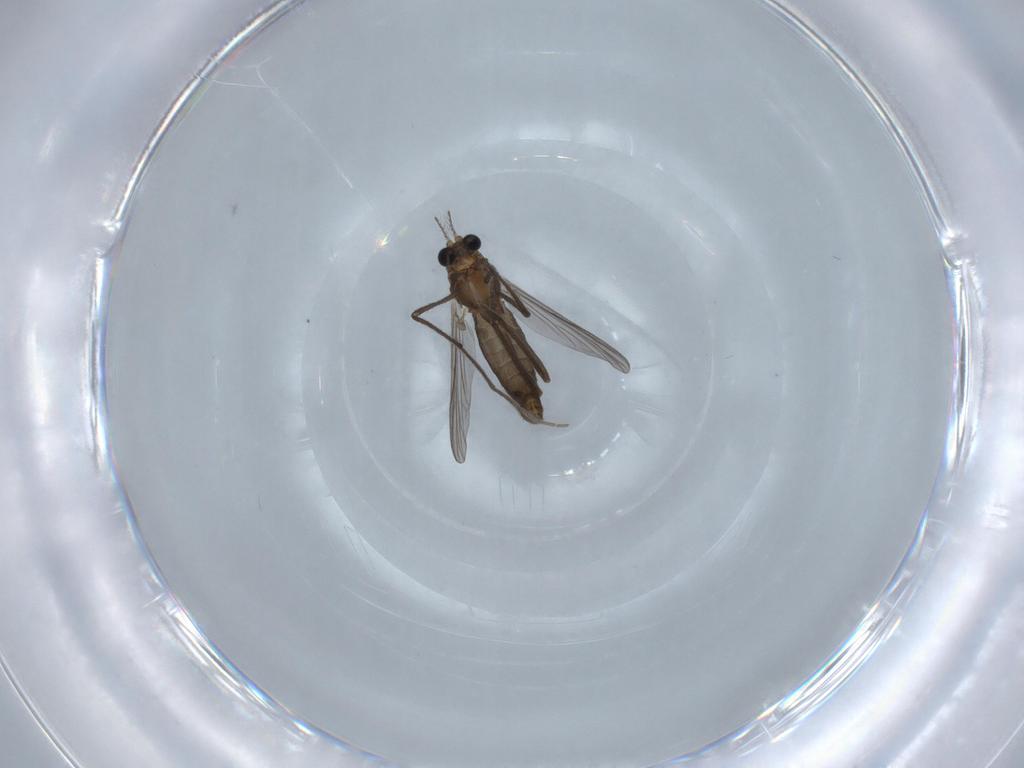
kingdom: Animalia
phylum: Arthropoda
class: Insecta
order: Diptera
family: Chironomidae
